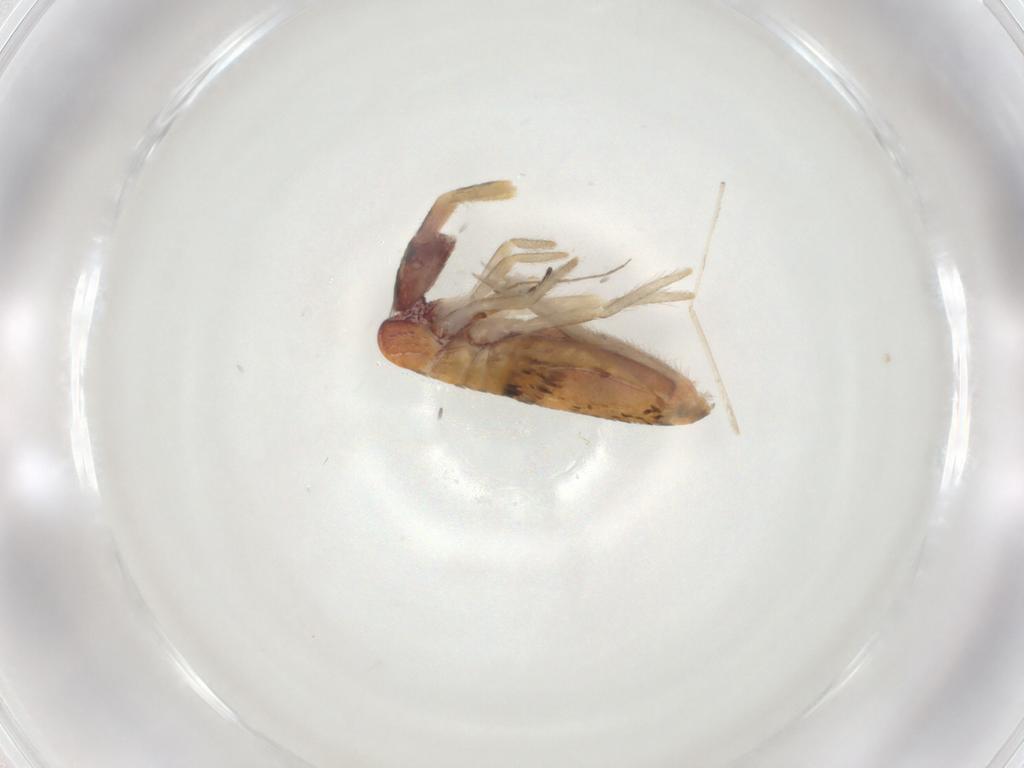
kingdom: Animalia
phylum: Arthropoda
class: Collembola
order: Entomobryomorpha
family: Entomobryidae
